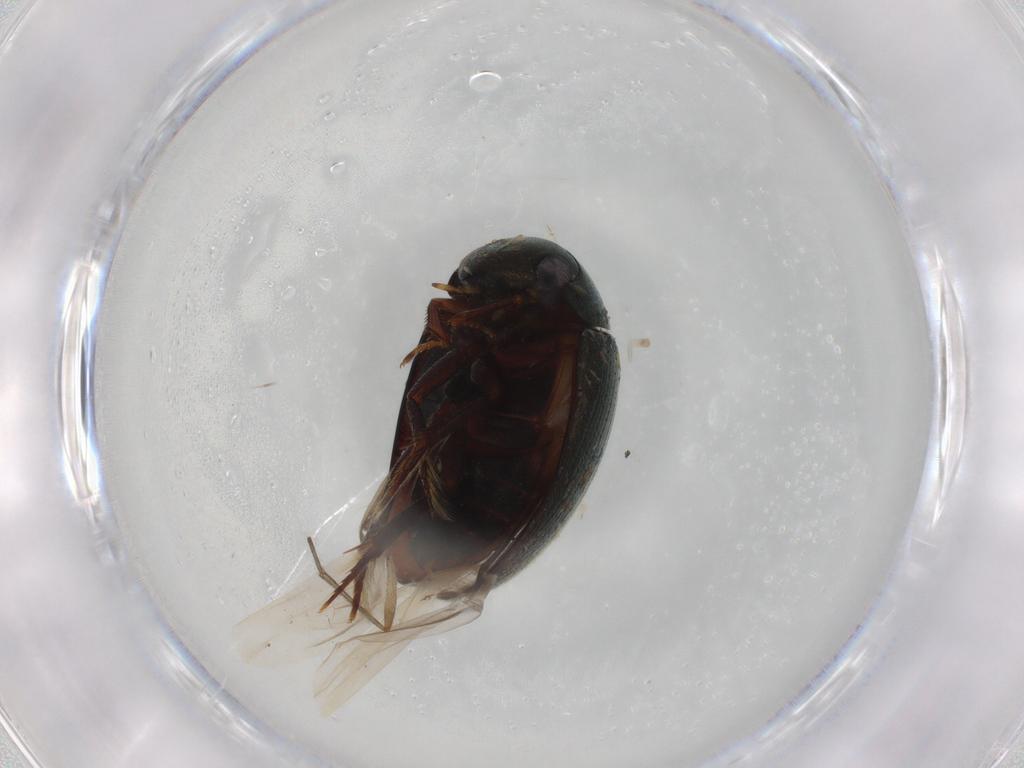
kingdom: Animalia
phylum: Arthropoda
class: Insecta
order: Coleoptera
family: Hydrophilidae
